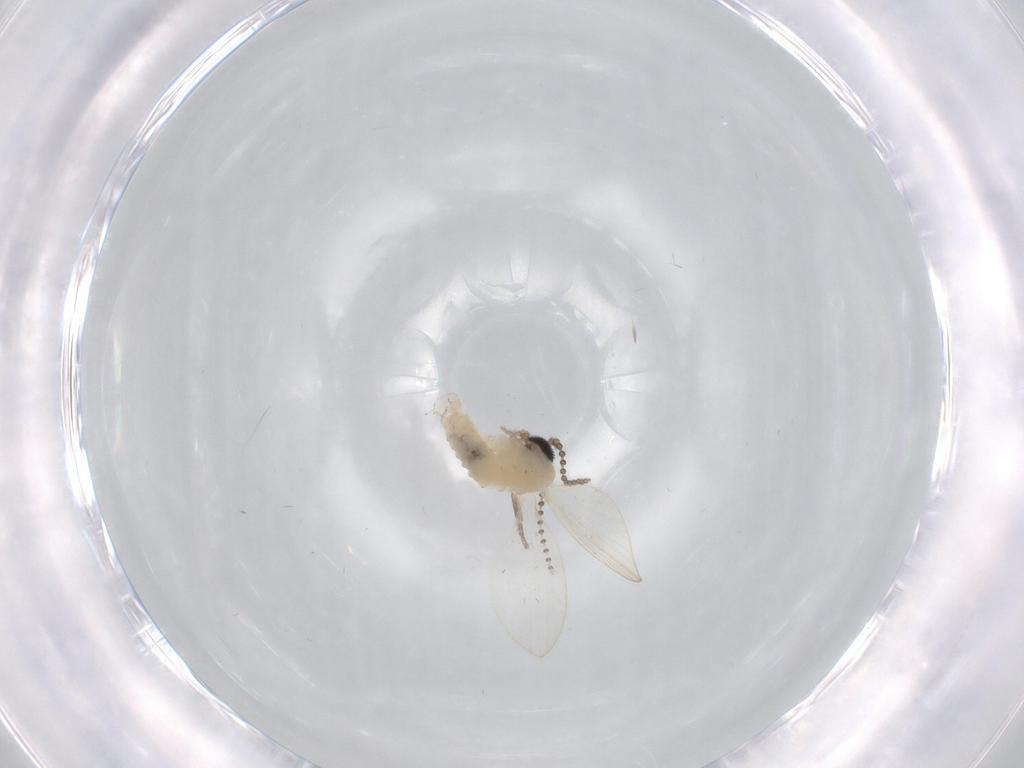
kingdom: Animalia
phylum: Arthropoda
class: Insecta
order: Diptera
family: Psychodidae
